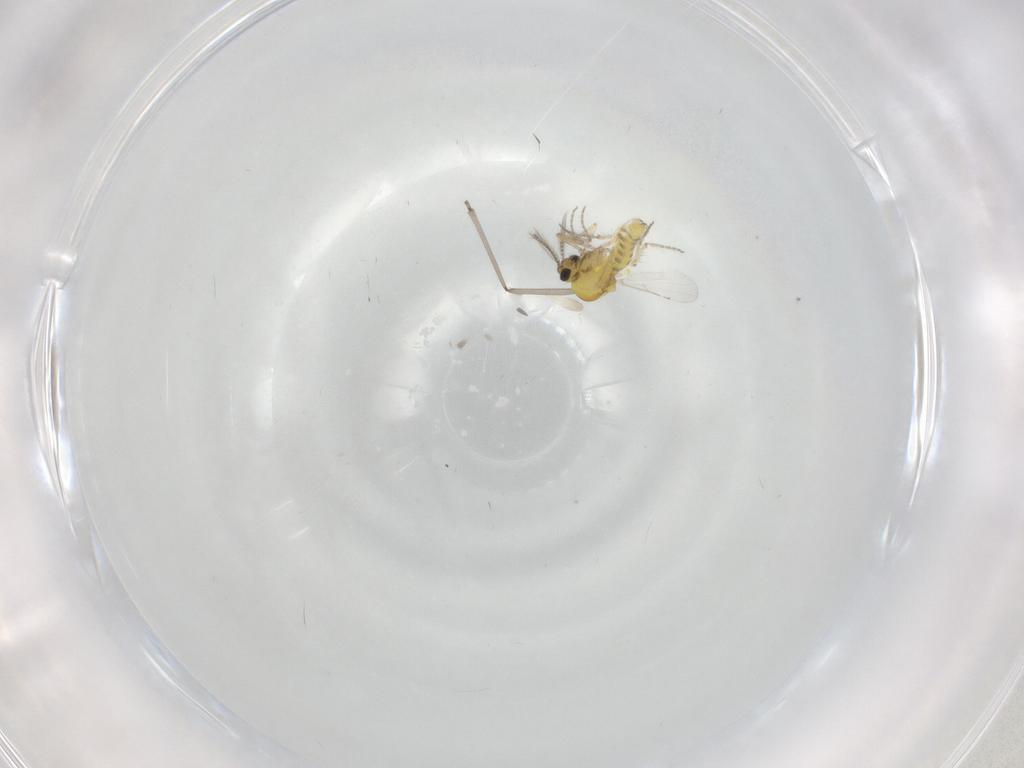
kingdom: Animalia
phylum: Arthropoda
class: Insecta
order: Diptera
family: Ceratopogonidae
